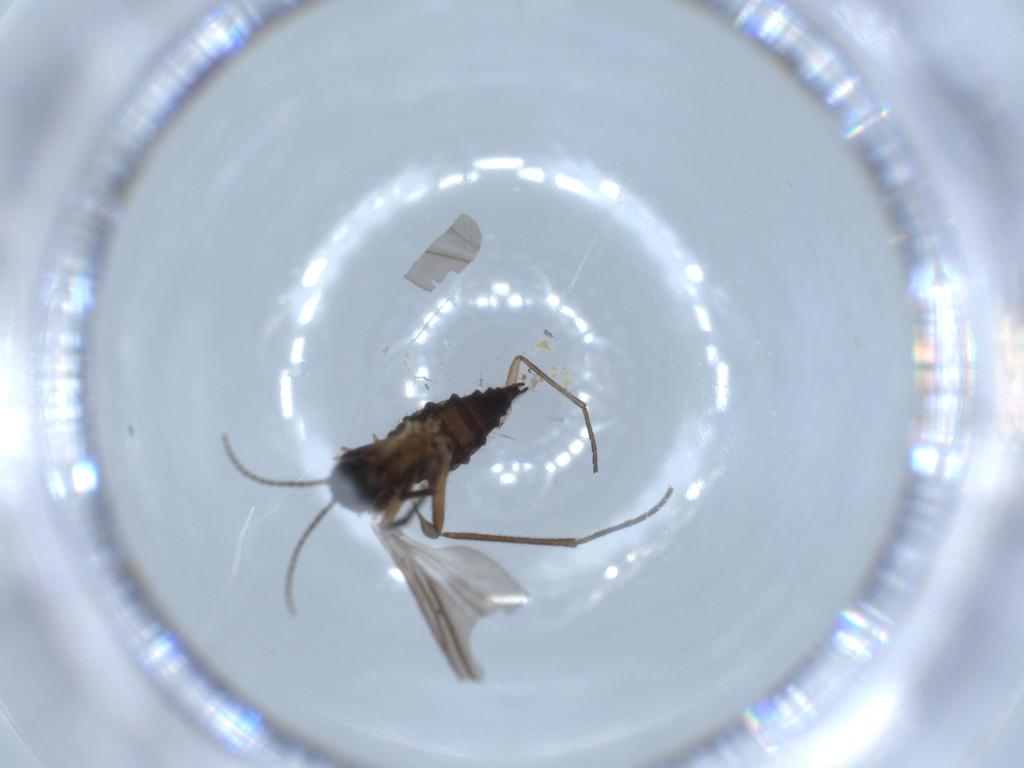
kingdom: Animalia
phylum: Arthropoda
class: Insecta
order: Diptera
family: Sciaridae
